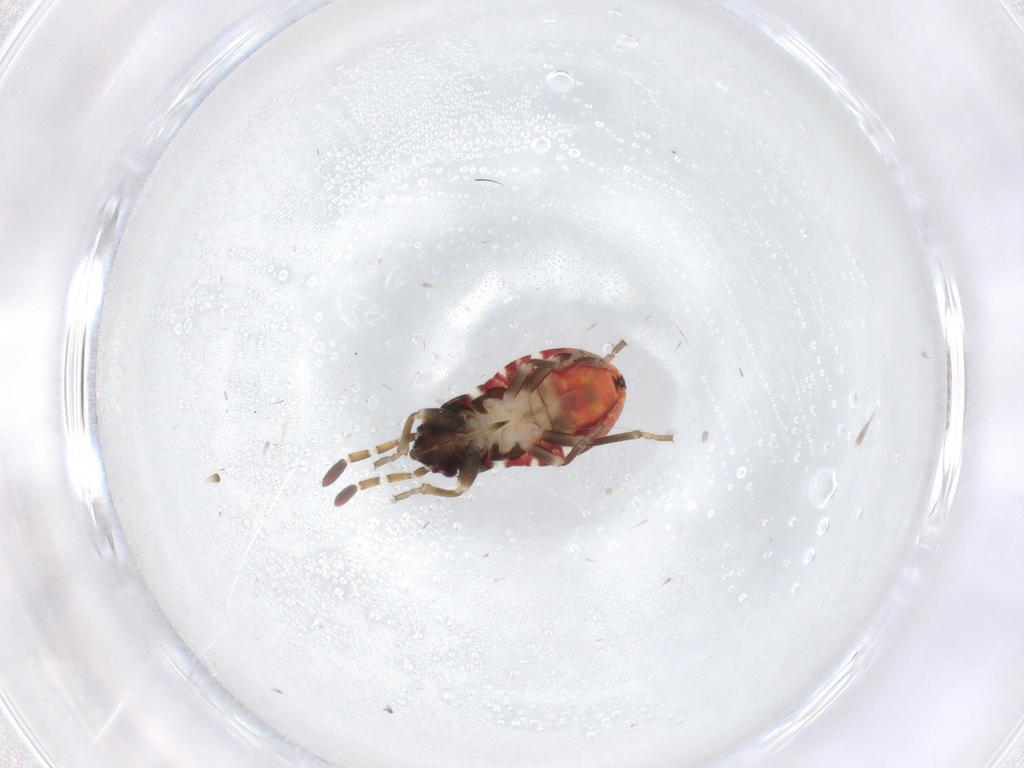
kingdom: Animalia
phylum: Arthropoda
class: Insecta
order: Hemiptera
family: Rhyparochromidae
